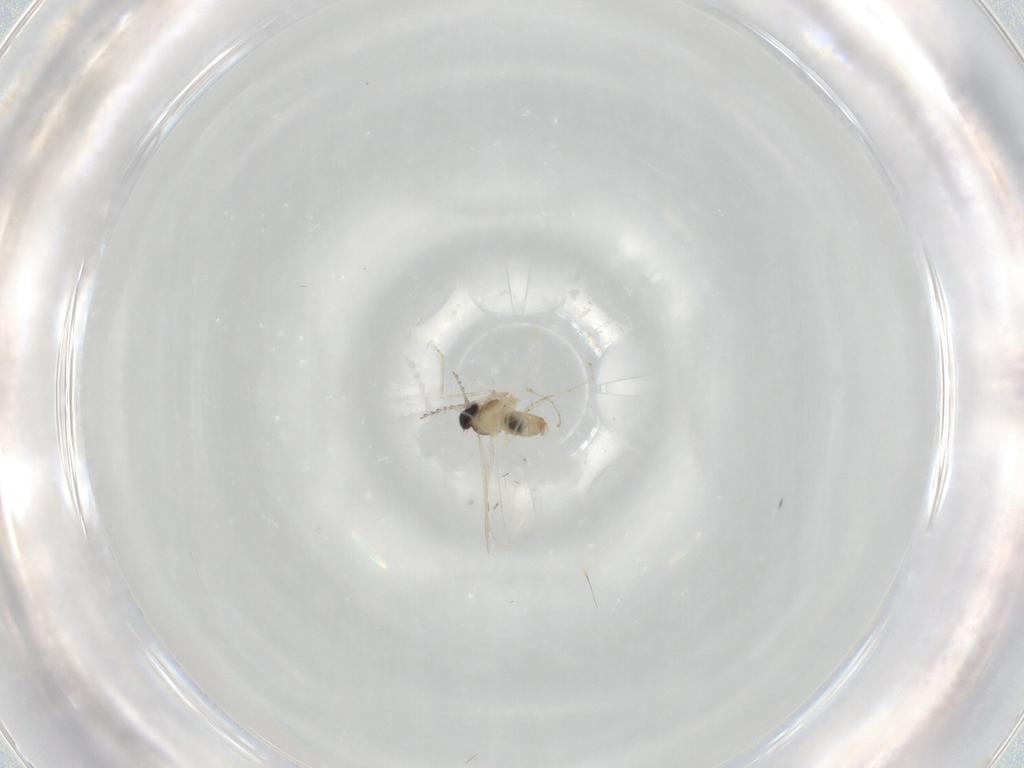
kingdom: Animalia
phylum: Arthropoda
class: Insecta
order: Diptera
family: Cecidomyiidae
